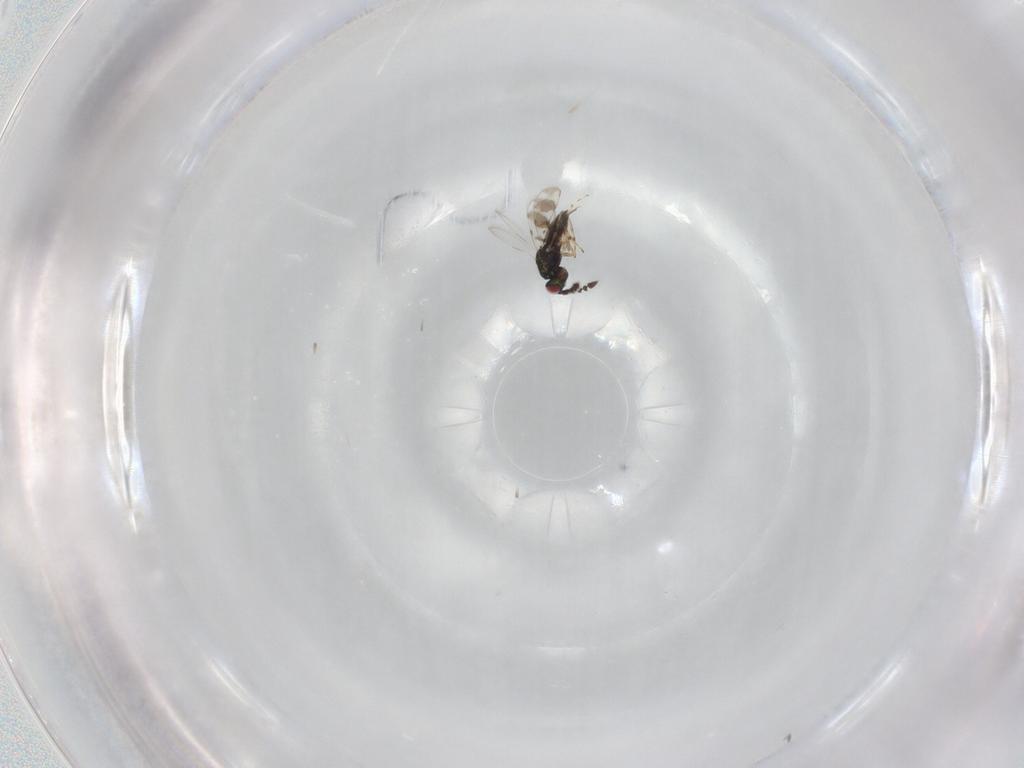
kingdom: Animalia
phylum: Arthropoda
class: Insecta
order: Hymenoptera
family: Eulophidae
